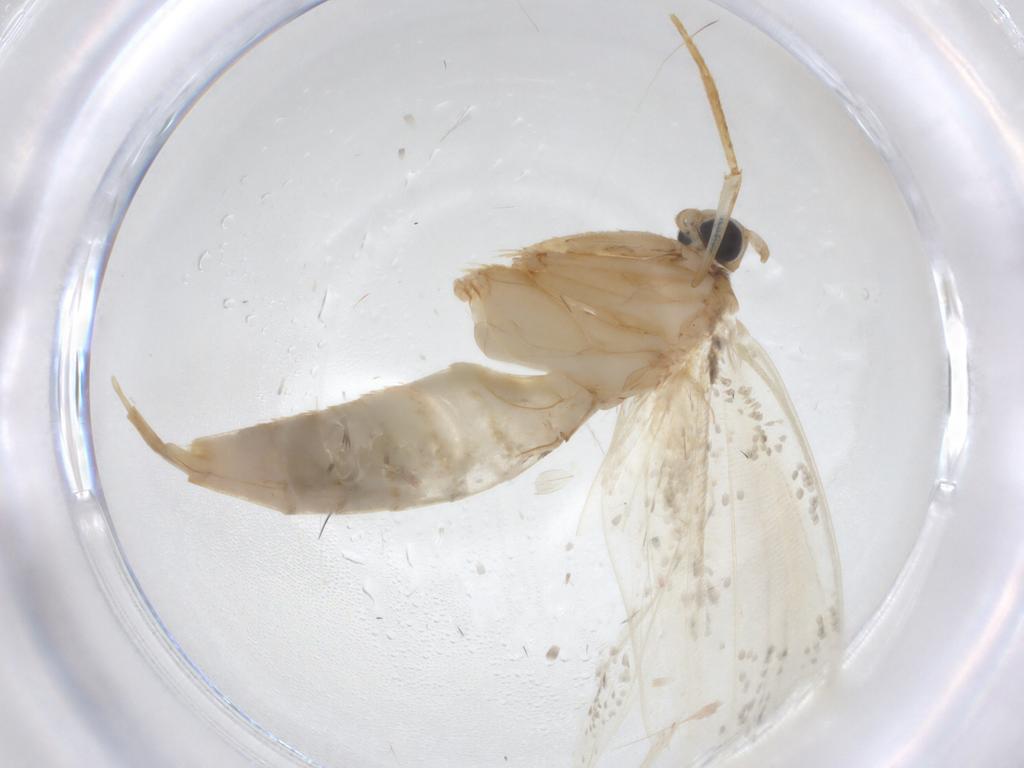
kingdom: Animalia
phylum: Arthropoda
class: Insecta
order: Lepidoptera
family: Tineidae
